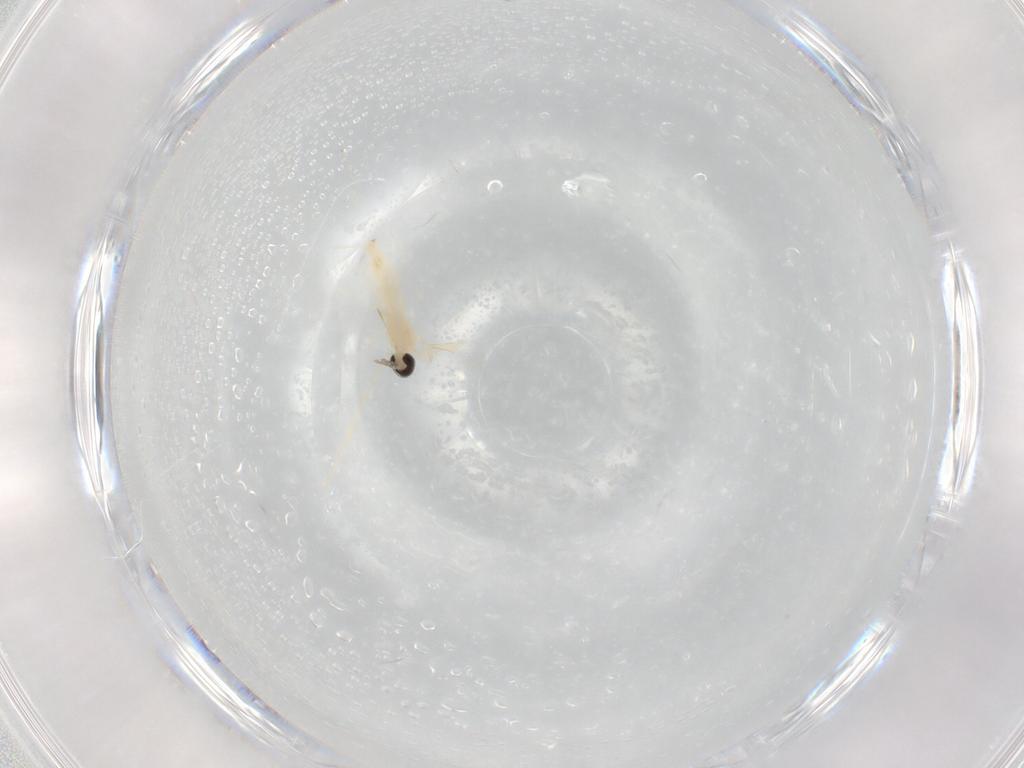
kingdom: Animalia
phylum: Arthropoda
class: Insecta
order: Diptera
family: Cecidomyiidae
